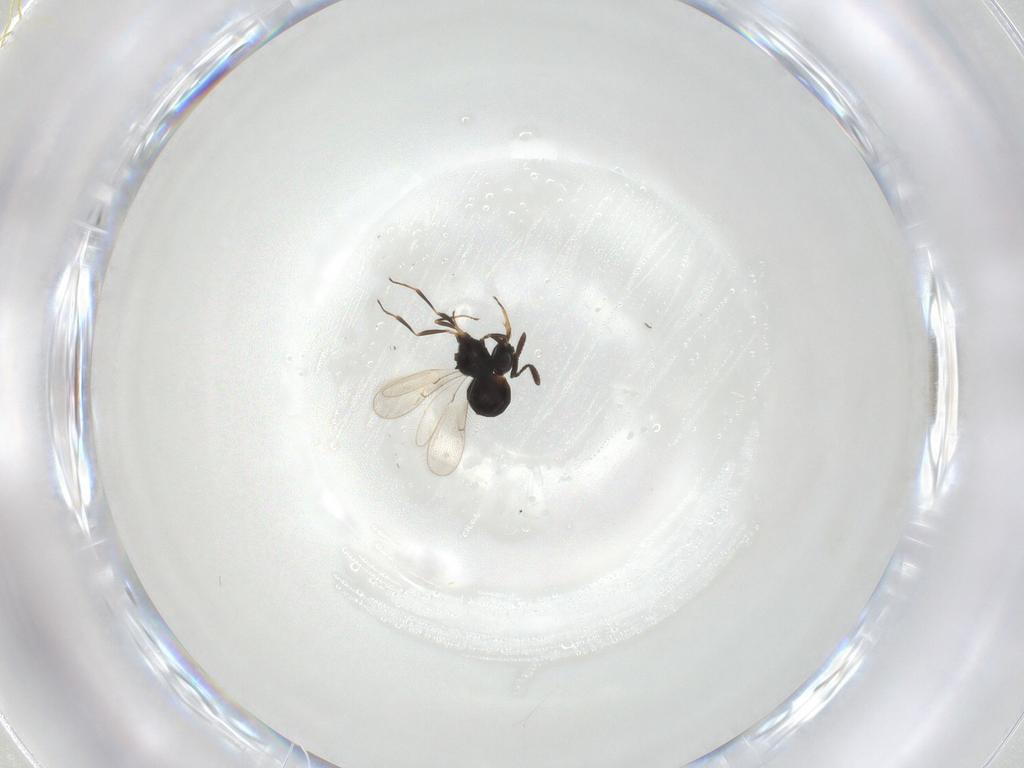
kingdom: Animalia
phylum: Arthropoda
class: Insecta
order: Hymenoptera
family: Scelionidae
